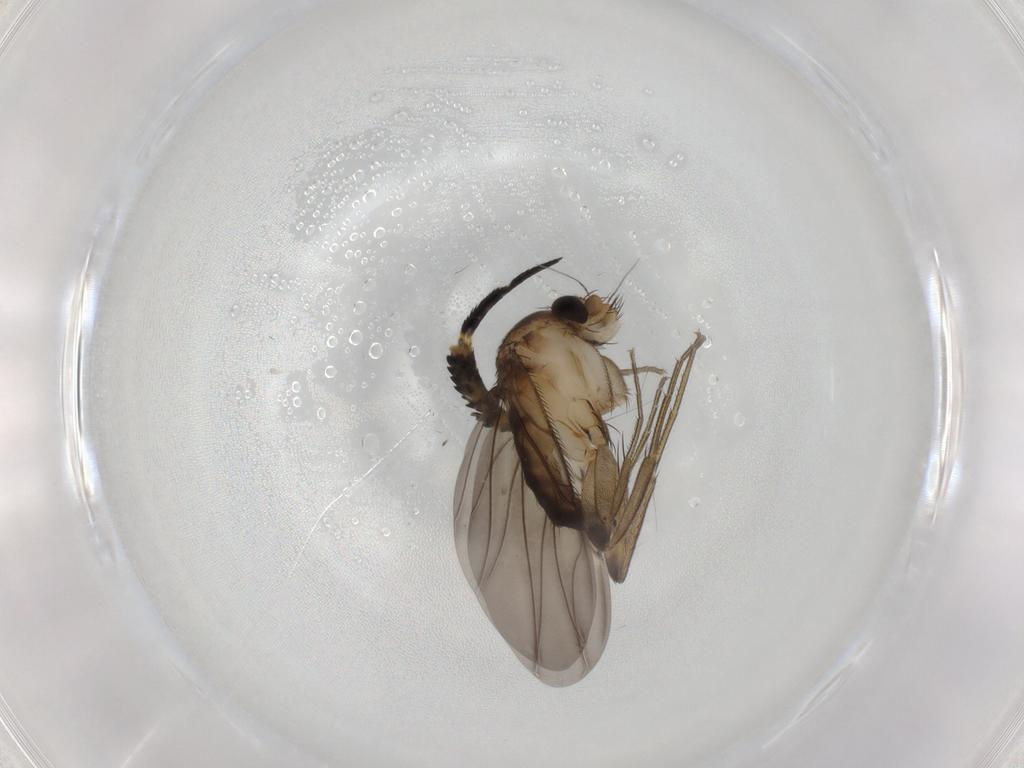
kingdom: Animalia
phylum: Arthropoda
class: Insecta
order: Diptera
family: Phoridae
